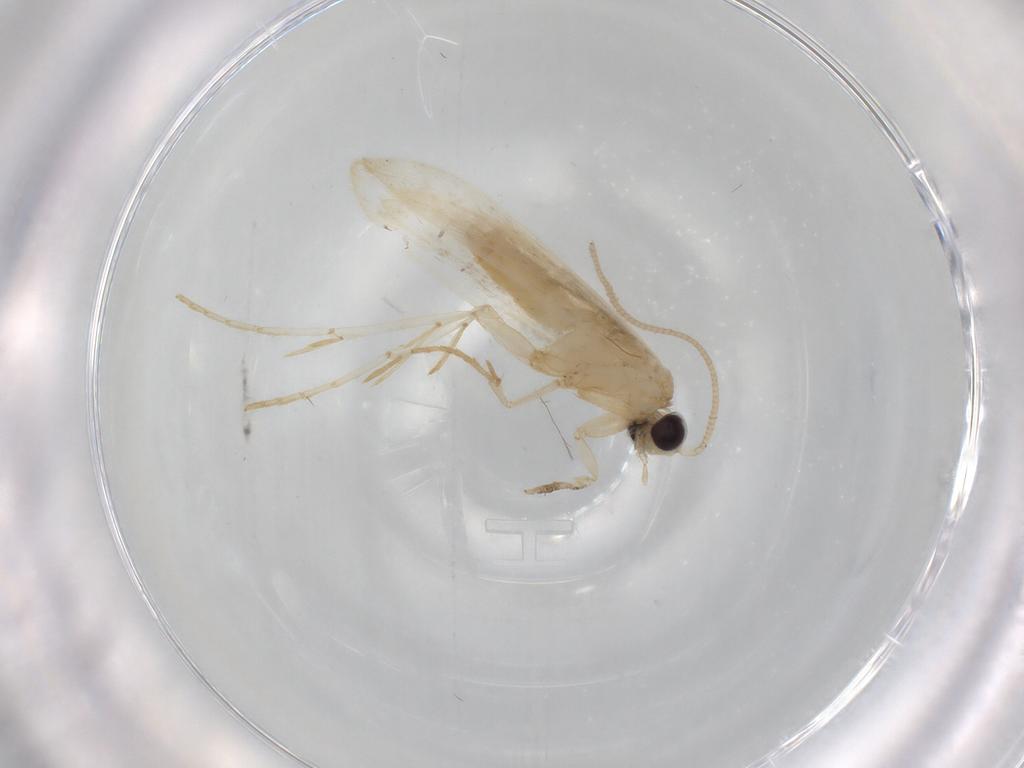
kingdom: Animalia
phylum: Arthropoda
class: Insecta
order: Lepidoptera
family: Tineidae
